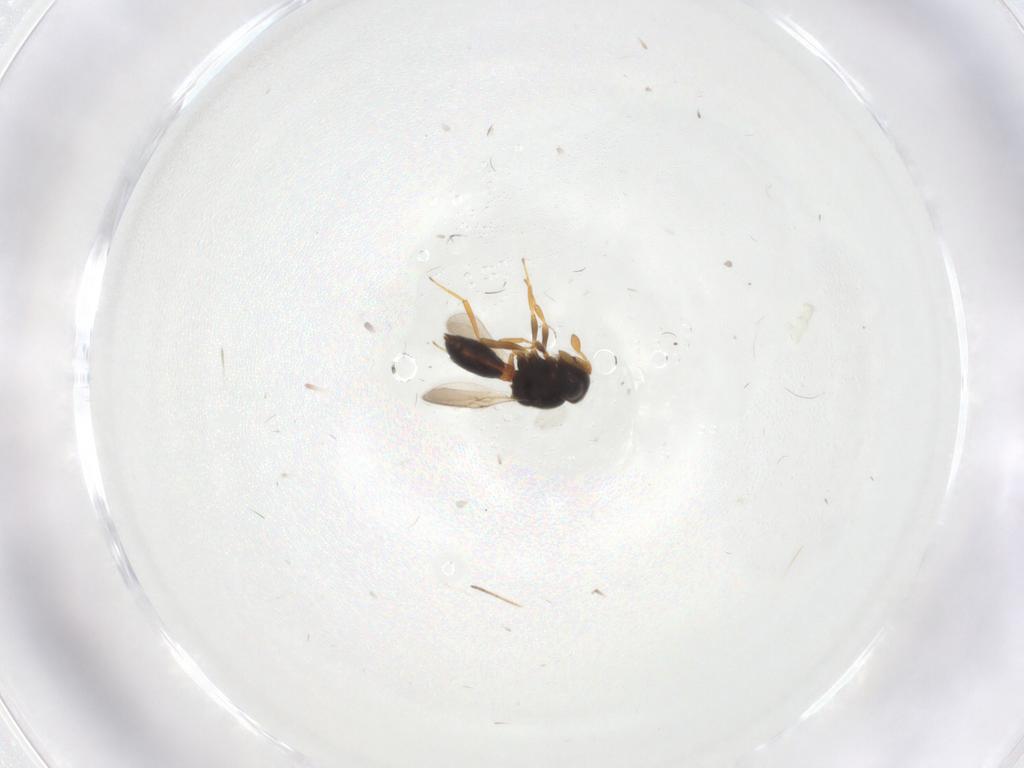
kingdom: Animalia
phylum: Arthropoda
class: Insecta
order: Hymenoptera
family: Scelionidae
